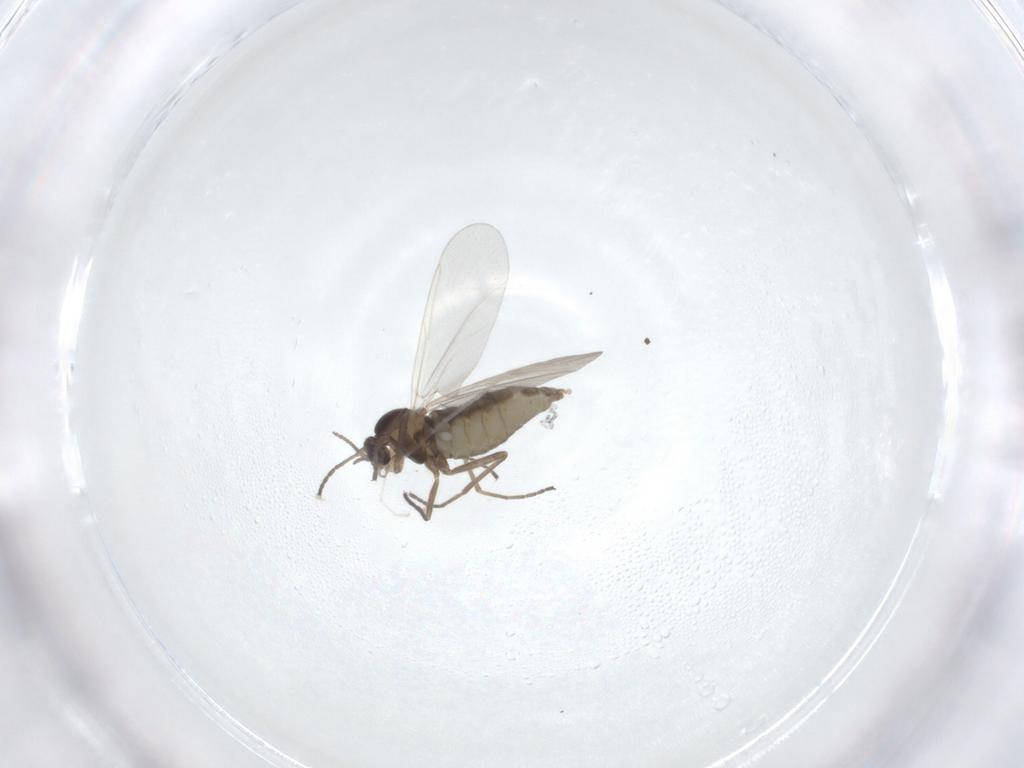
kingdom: Animalia
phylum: Arthropoda
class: Insecta
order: Diptera
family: Cecidomyiidae
